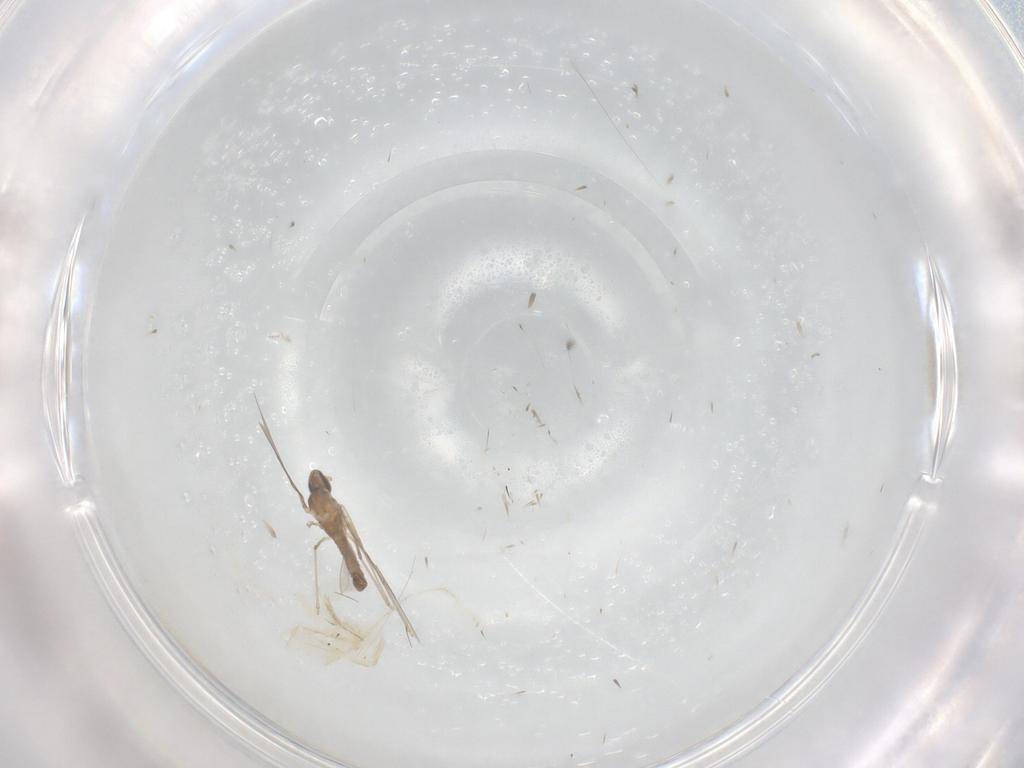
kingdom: Animalia
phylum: Arthropoda
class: Insecta
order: Diptera
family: Cecidomyiidae
